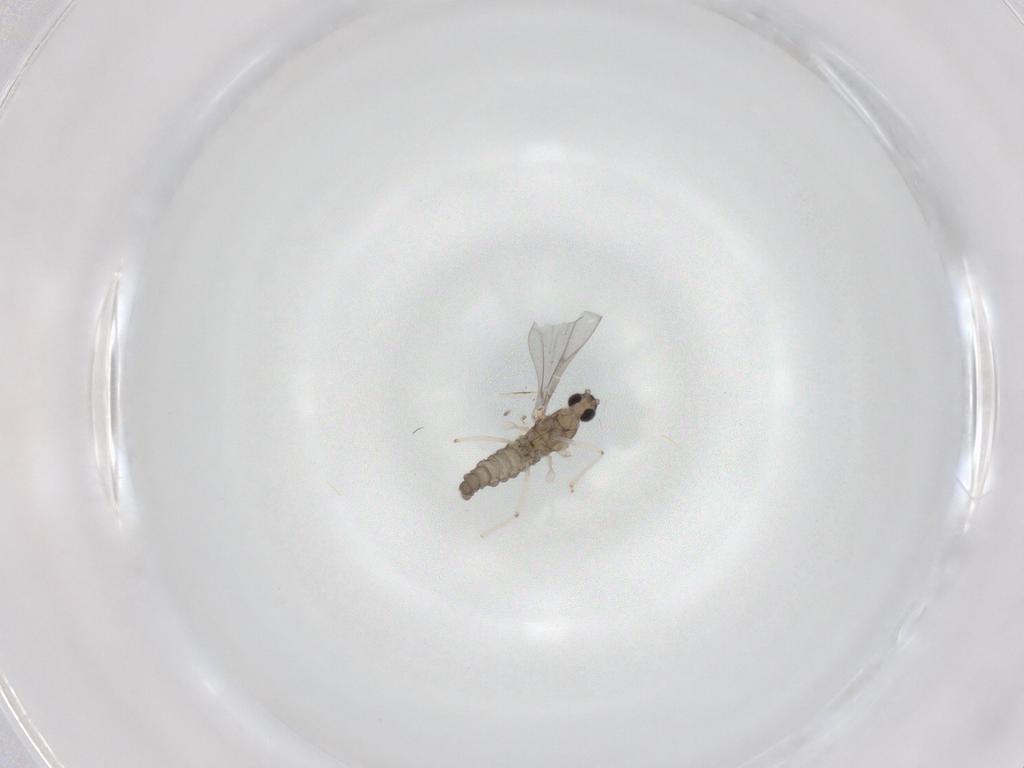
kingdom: Animalia
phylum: Arthropoda
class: Insecta
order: Diptera
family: Cecidomyiidae
